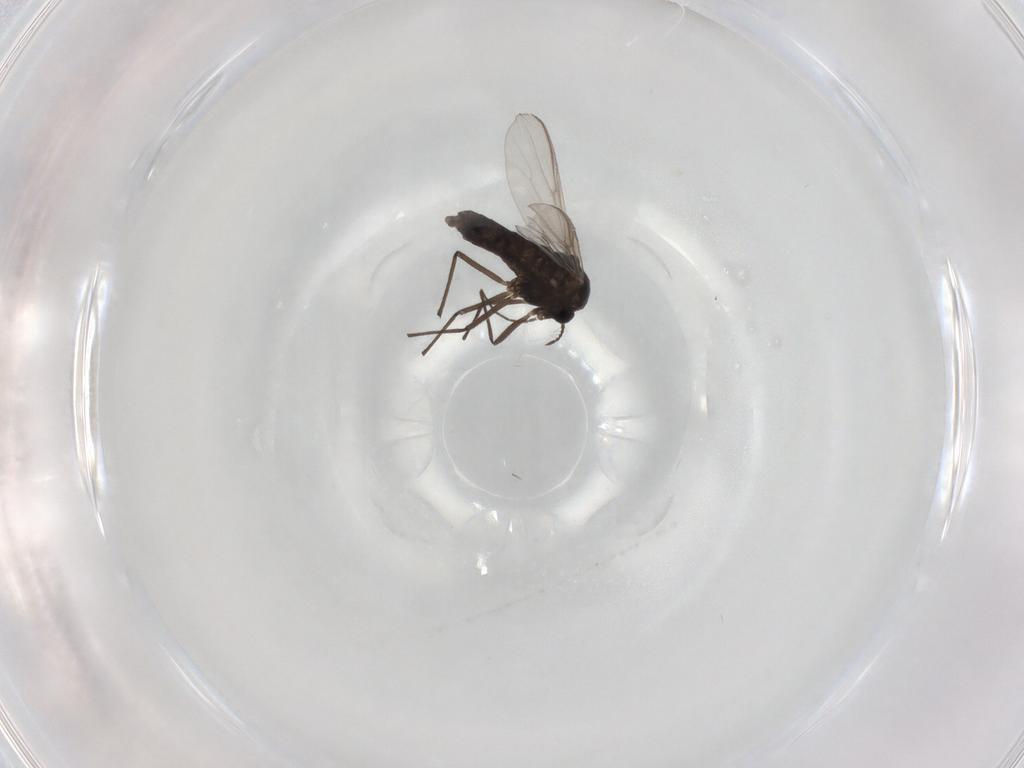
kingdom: Animalia
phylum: Arthropoda
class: Insecta
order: Diptera
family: Chironomidae
